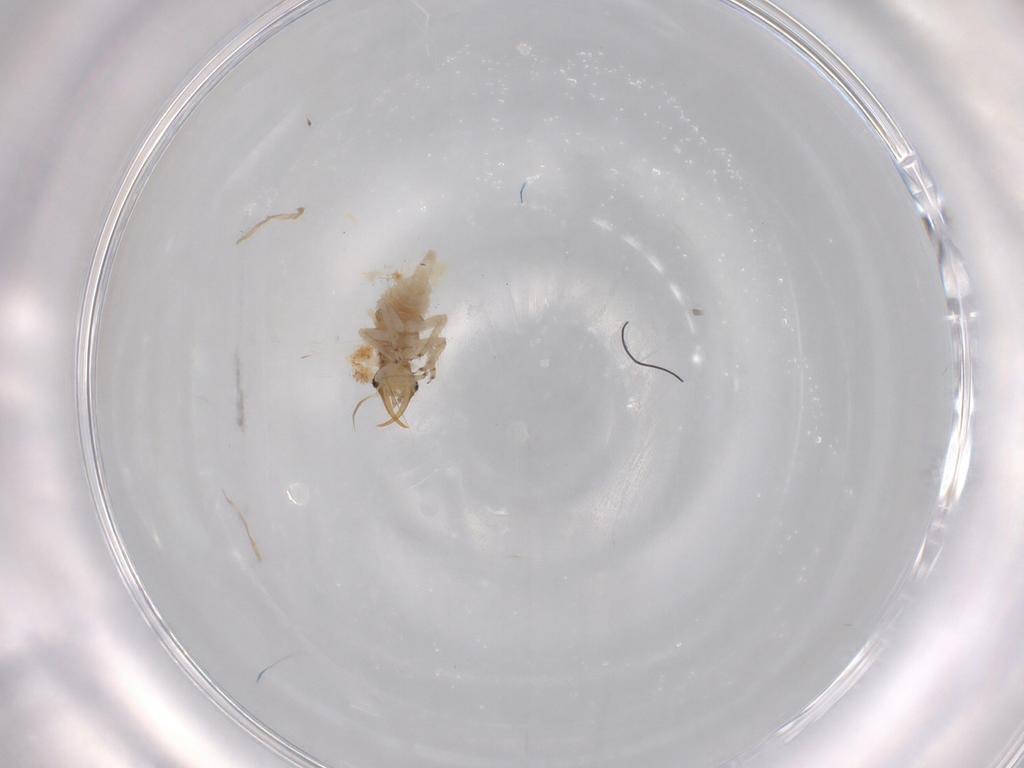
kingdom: Animalia
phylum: Arthropoda
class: Insecta
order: Neuroptera
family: Chrysopidae
